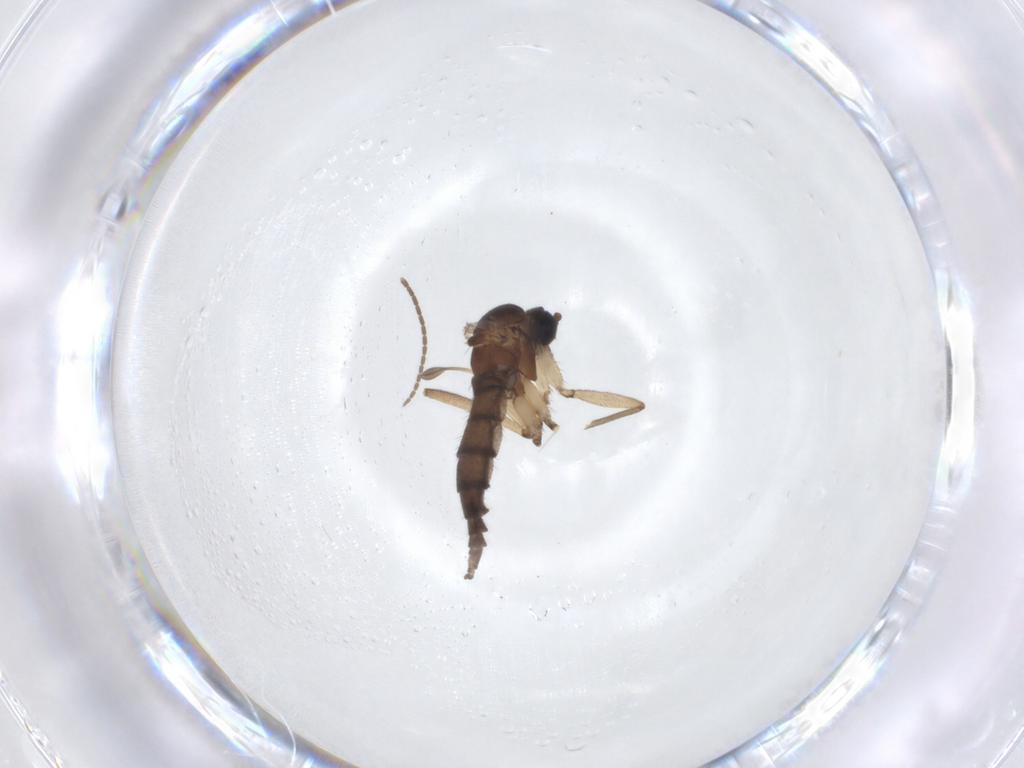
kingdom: Animalia
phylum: Arthropoda
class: Insecta
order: Diptera
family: Sciaridae
